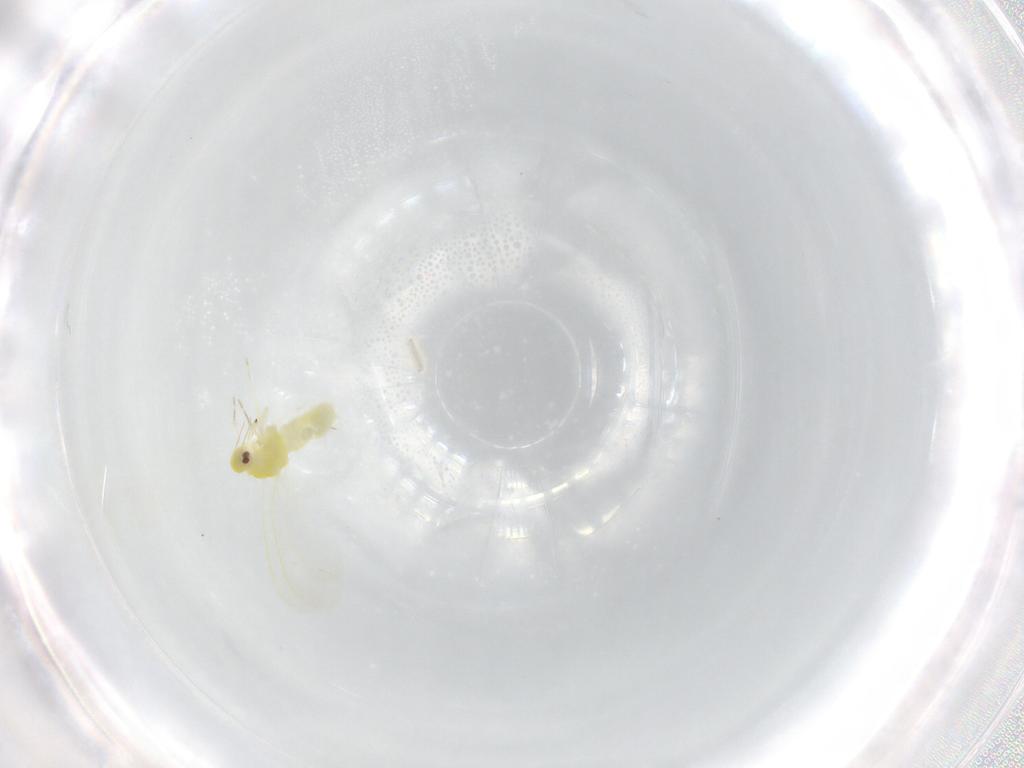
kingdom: Animalia
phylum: Arthropoda
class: Insecta
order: Hemiptera
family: Aleyrodidae
